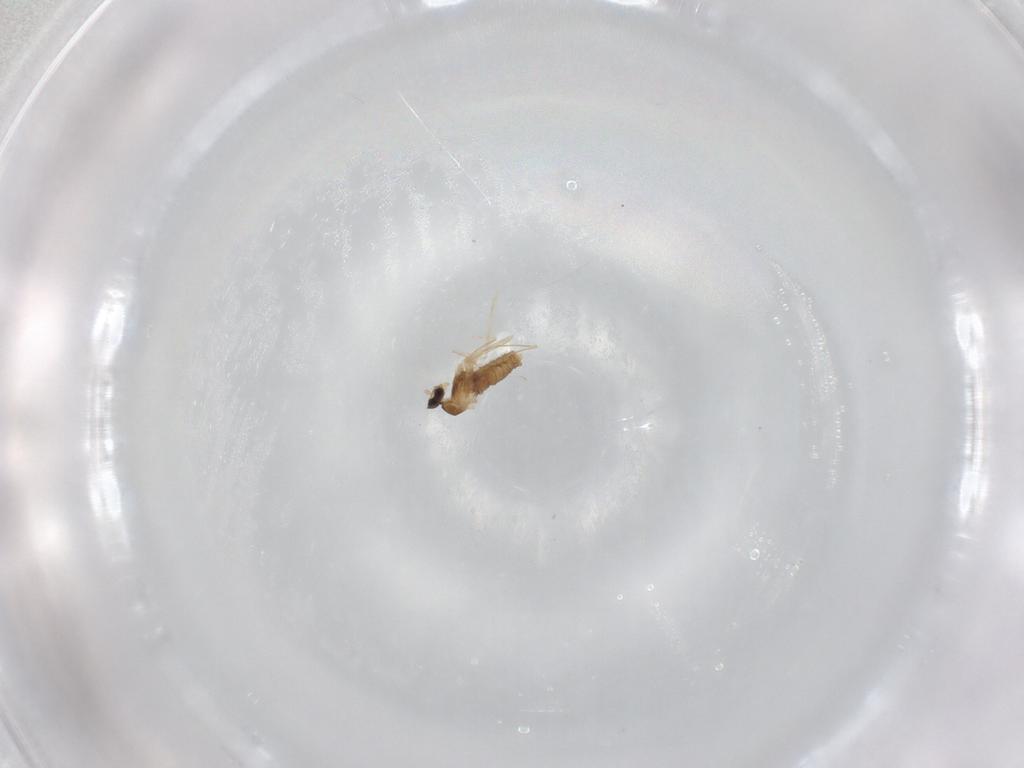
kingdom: Animalia
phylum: Arthropoda
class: Insecta
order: Diptera
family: Cecidomyiidae
